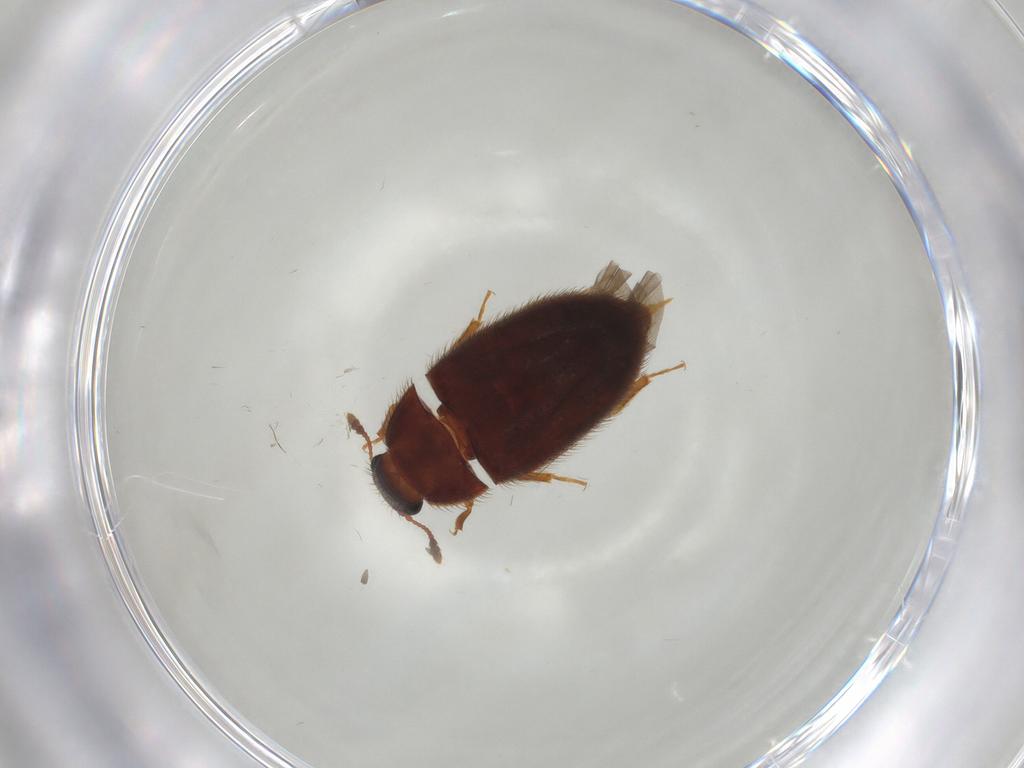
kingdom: Animalia
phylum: Arthropoda
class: Insecta
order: Coleoptera
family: Biphyllidae
